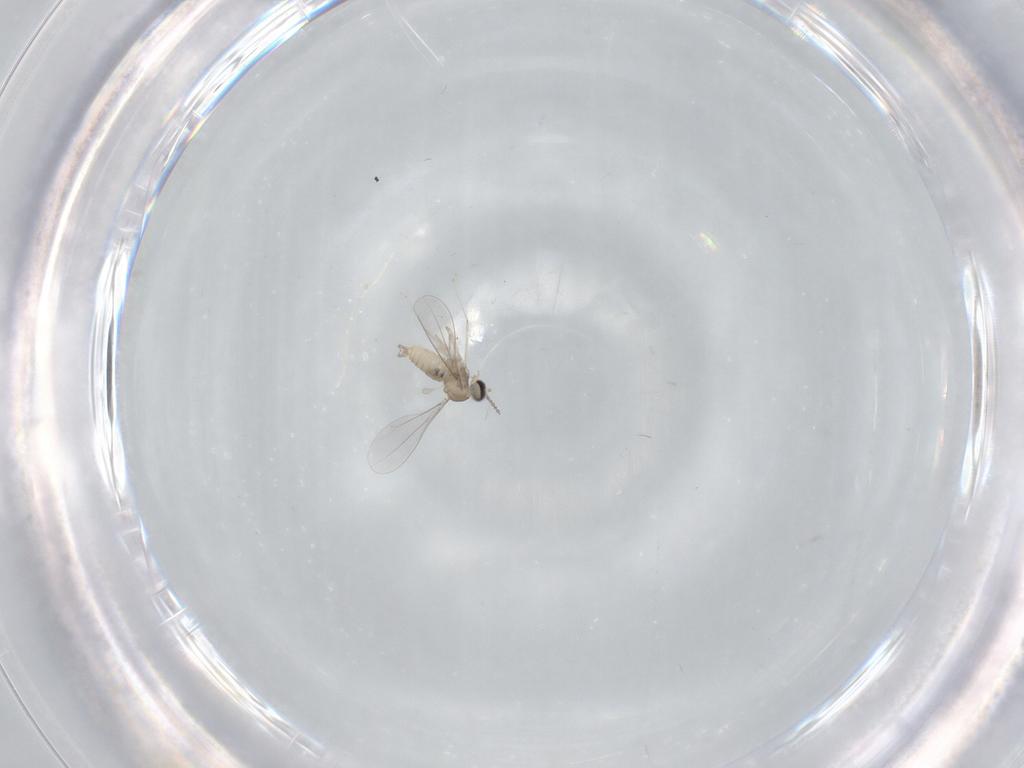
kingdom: Animalia
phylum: Arthropoda
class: Insecta
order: Diptera
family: Cecidomyiidae
